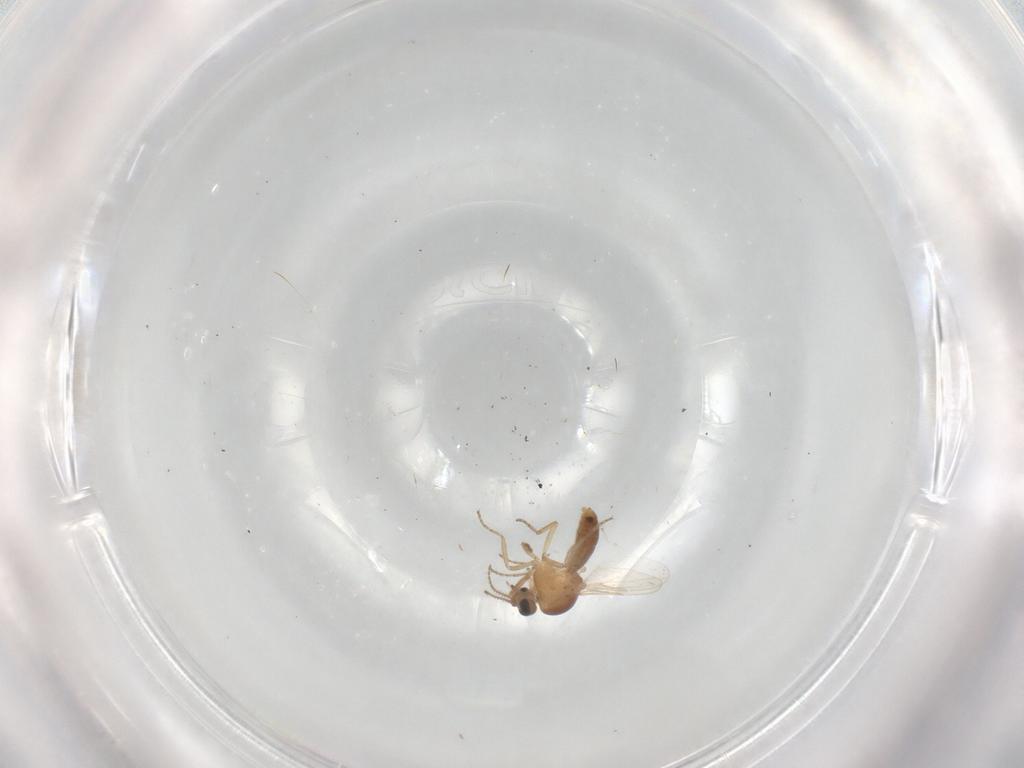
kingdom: Animalia
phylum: Arthropoda
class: Insecta
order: Diptera
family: Ceratopogonidae
